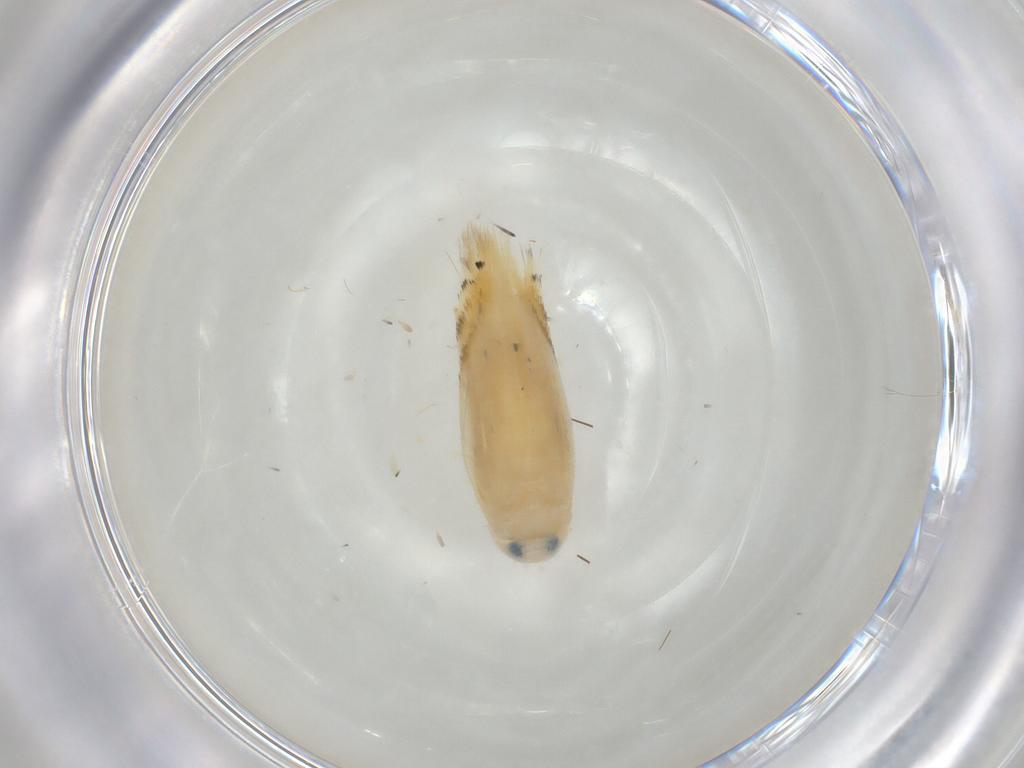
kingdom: Animalia
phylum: Arthropoda
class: Insecta
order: Lepidoptera
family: Opostegidae
